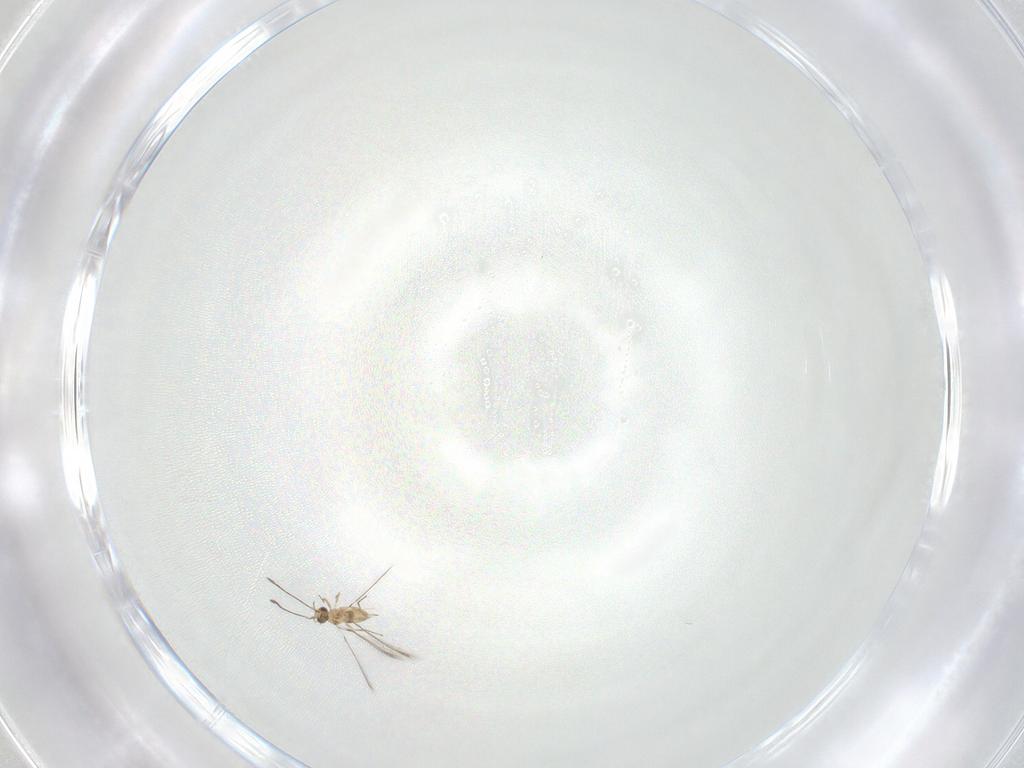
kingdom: Animalia
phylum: Arthropoda
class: Insecta
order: Hymenoptera
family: Mymaridae
